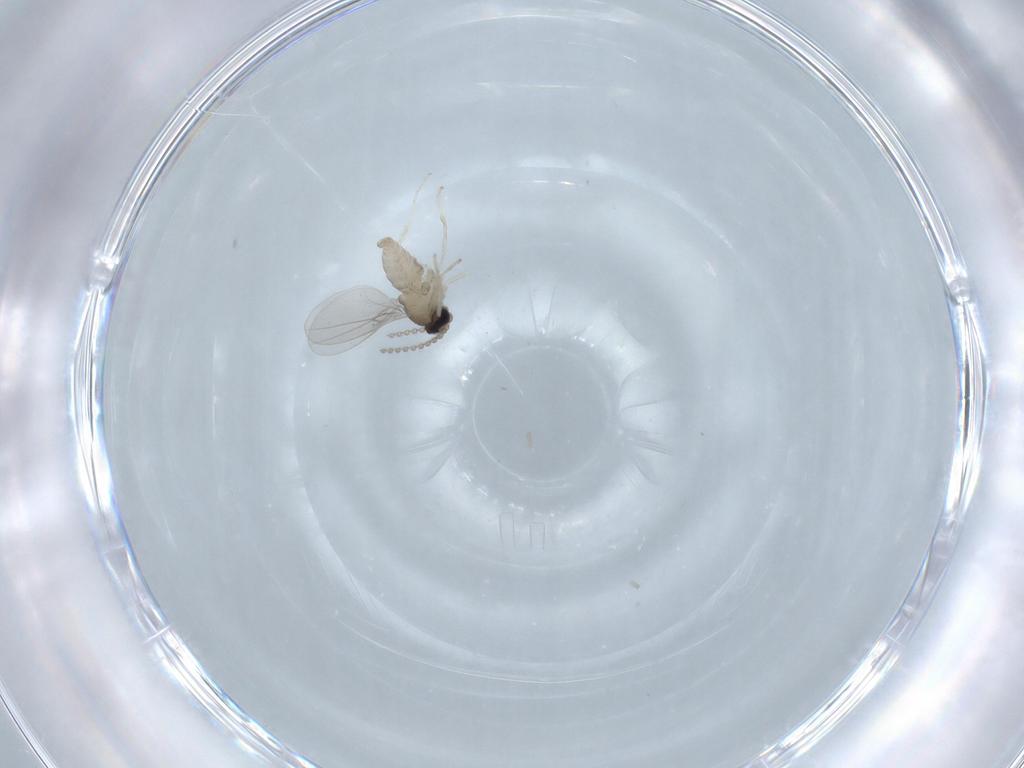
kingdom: Animalia
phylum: Arthropoda
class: Insecta
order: Diptera
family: Cecidomyiidae
